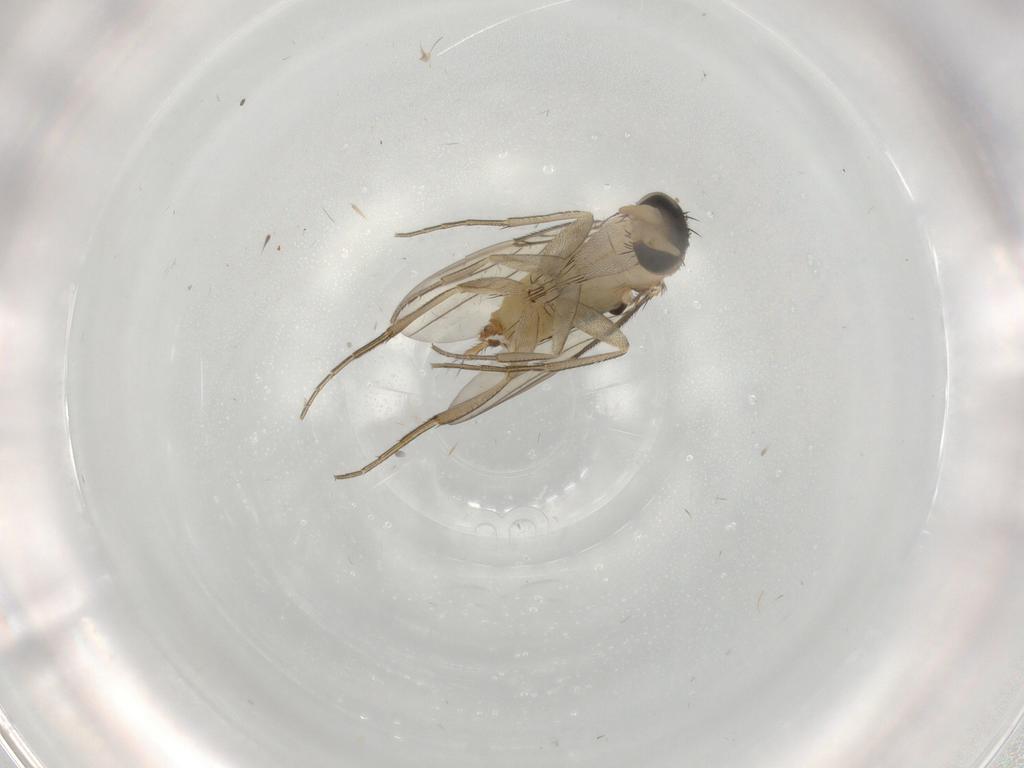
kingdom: Animalia
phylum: Arthropoda
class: Insecta
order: Diptera
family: Phoridae
